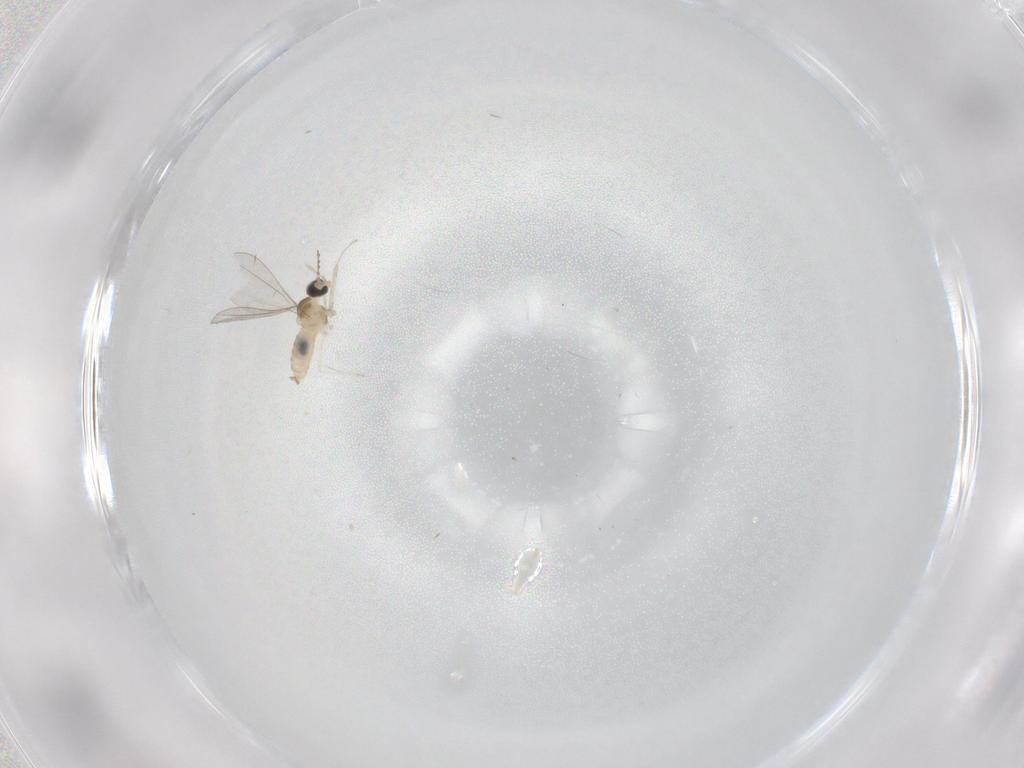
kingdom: Animalia
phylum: Arthropoda
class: Insecta
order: Diptera
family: Cecidomyiidae
